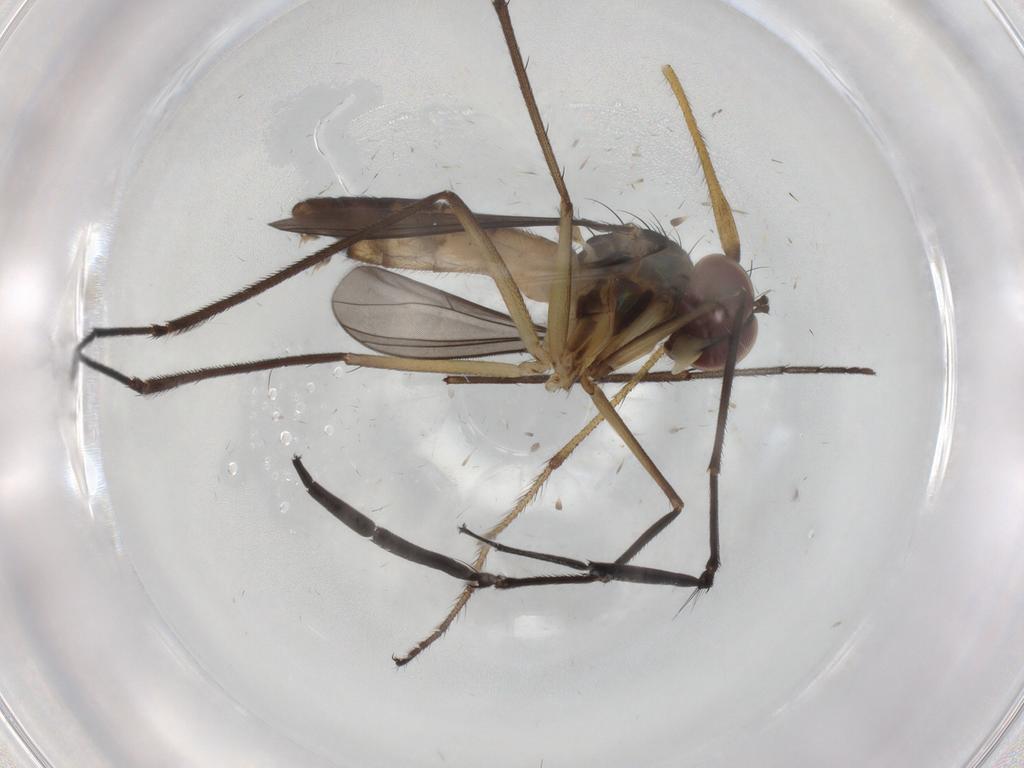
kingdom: Animalia
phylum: Arthropoda
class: Insecta
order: Diptera
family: Dolichopodidae
